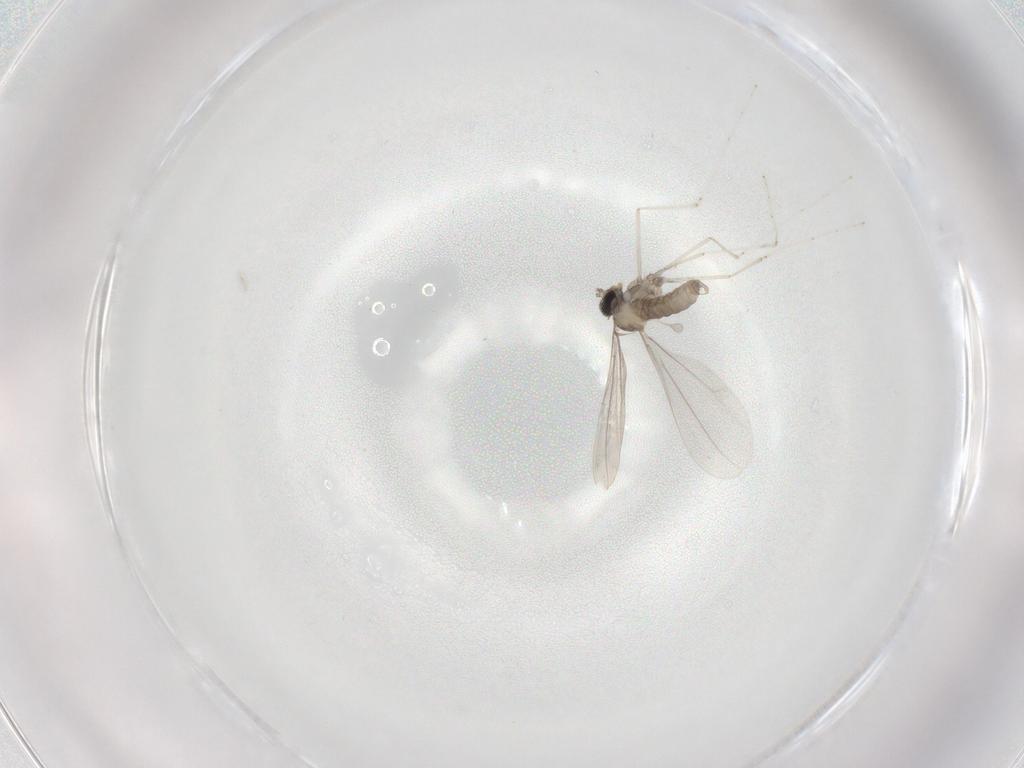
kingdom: Animalia
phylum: Arthropoda
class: Insecta
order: Diptera
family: Cecidomyiidae
